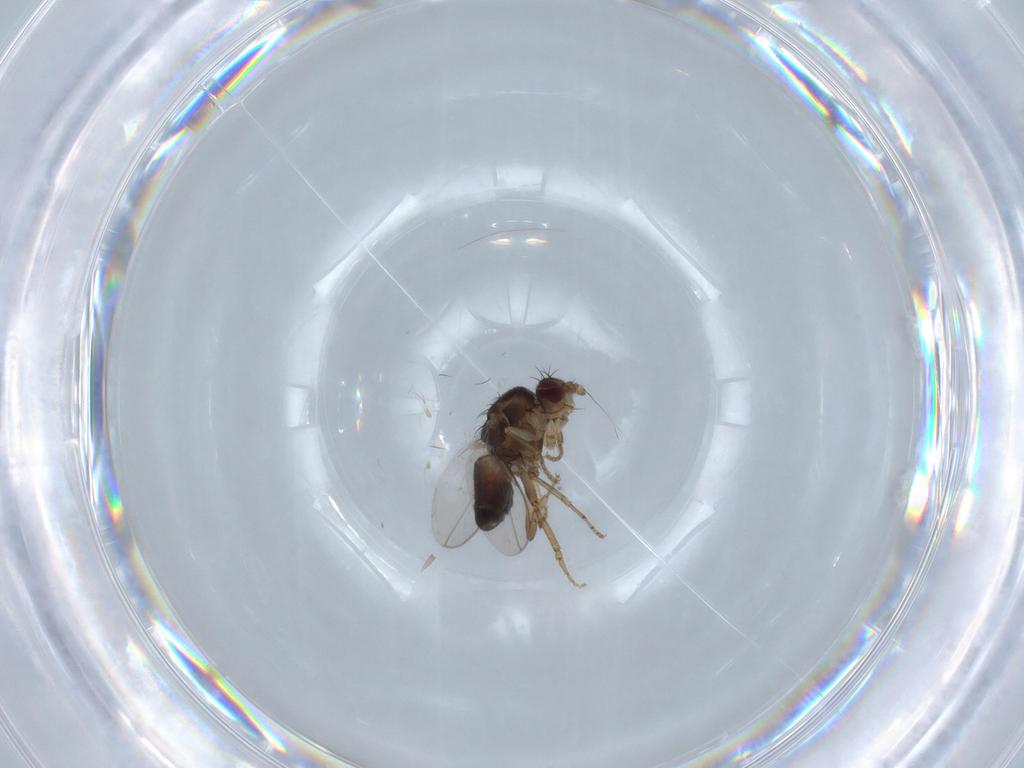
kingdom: Animalia
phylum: Arthropoda
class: Insecta
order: Diptera
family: Sphaeroceridae
